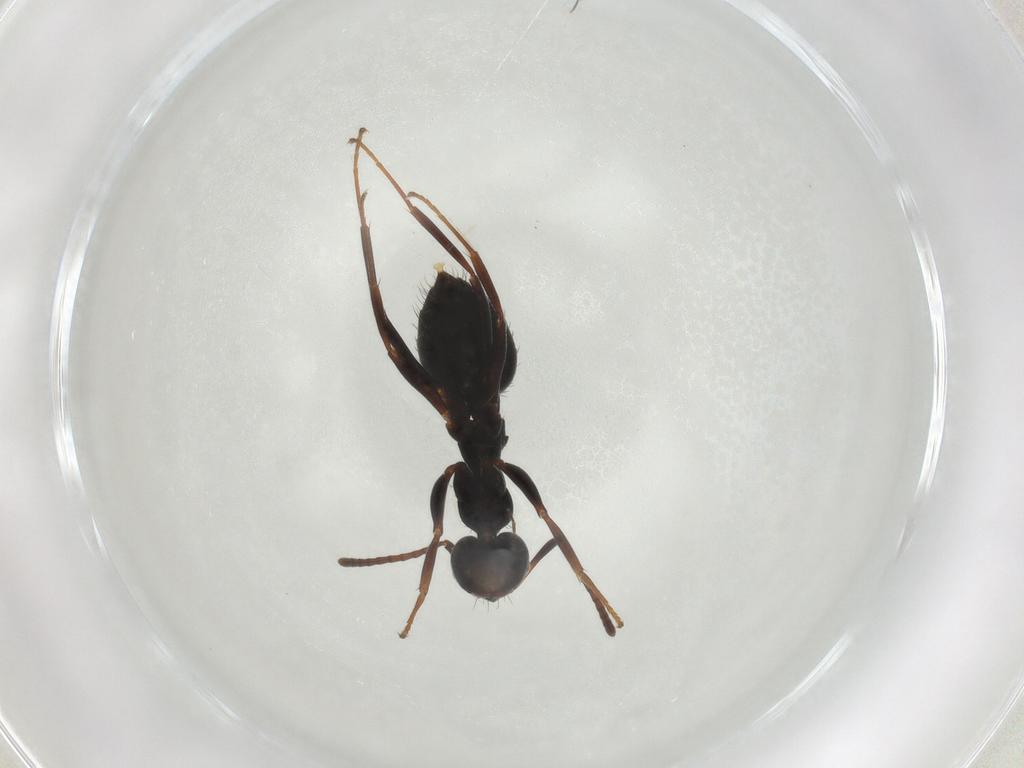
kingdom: Animalia
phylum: Arthropoda
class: Insecta
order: Hymenoptera
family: Formicidae
